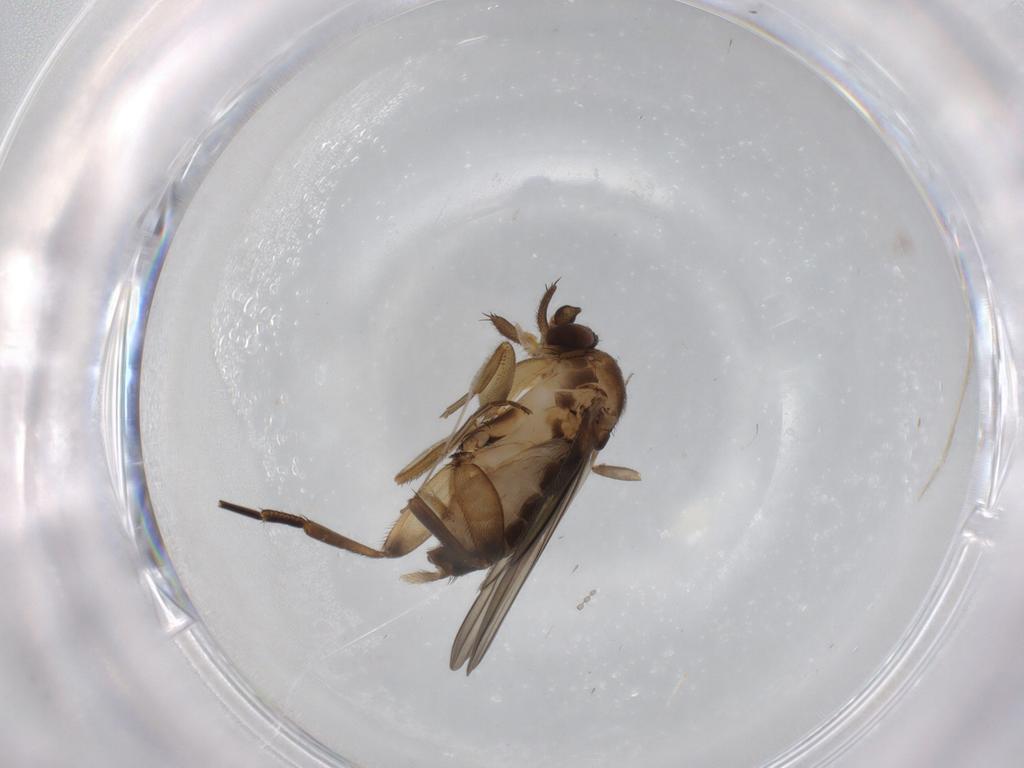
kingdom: Animalia
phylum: Arthropoda
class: Insecta
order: Diptera
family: Phoridae
